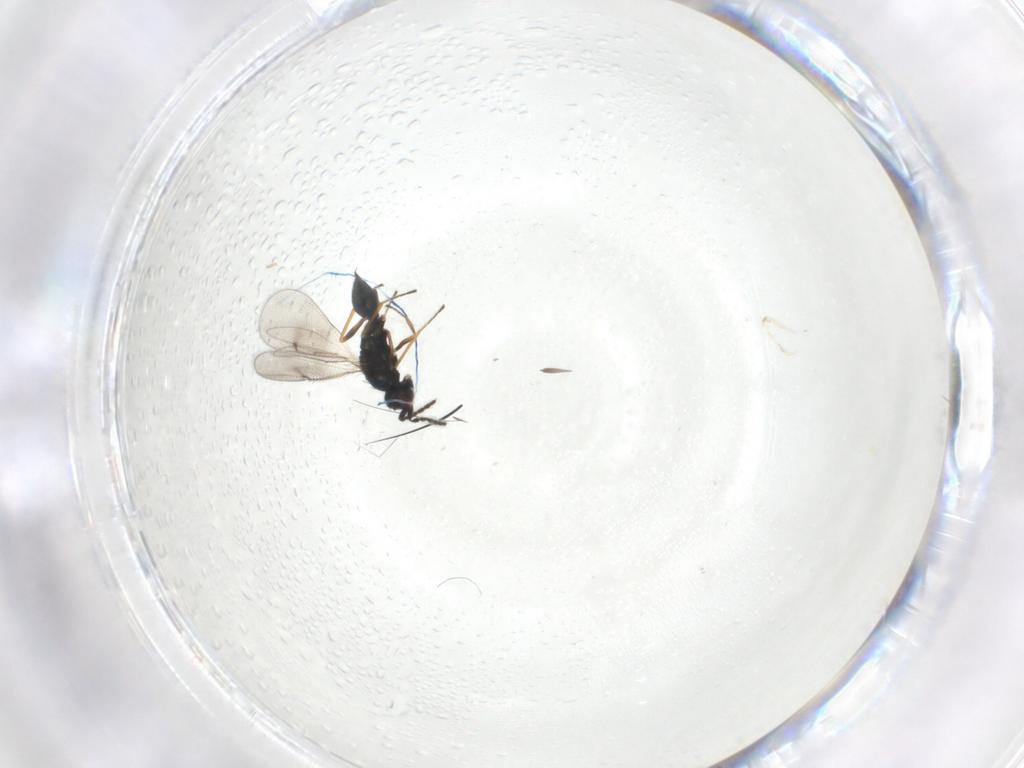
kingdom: Animalia
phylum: Arthropoda
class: Insecta
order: Hymenoptera
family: Eulophidae
